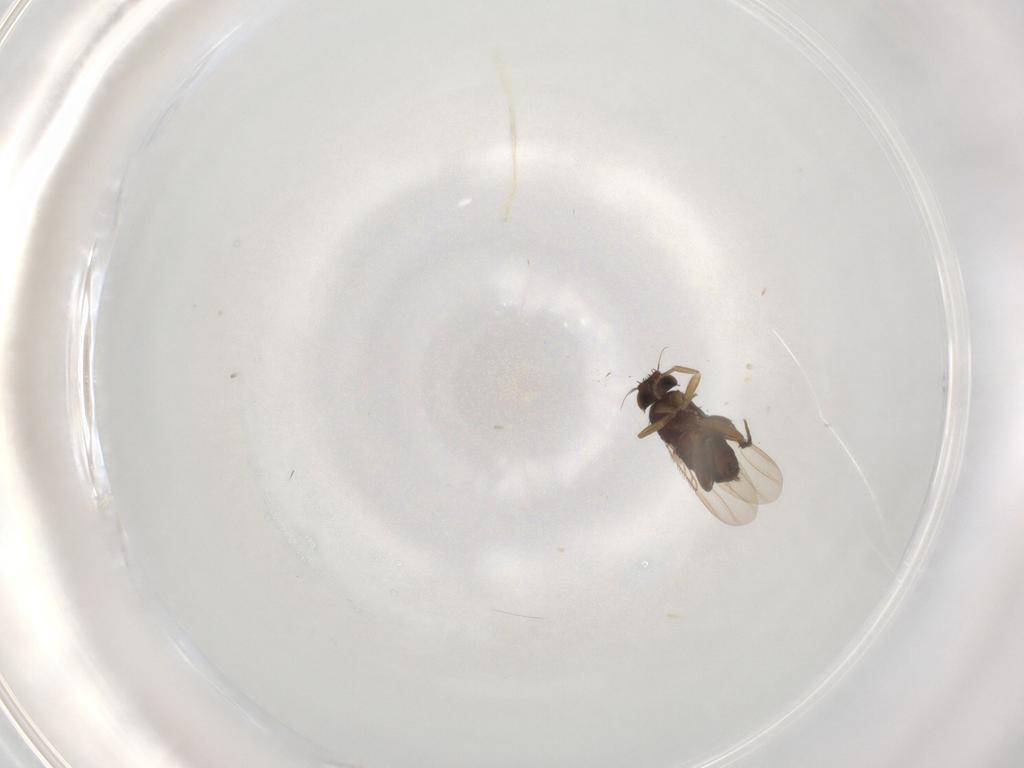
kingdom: Animalia
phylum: Arthropoda
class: Insecta
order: Diptera
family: Phoridae
